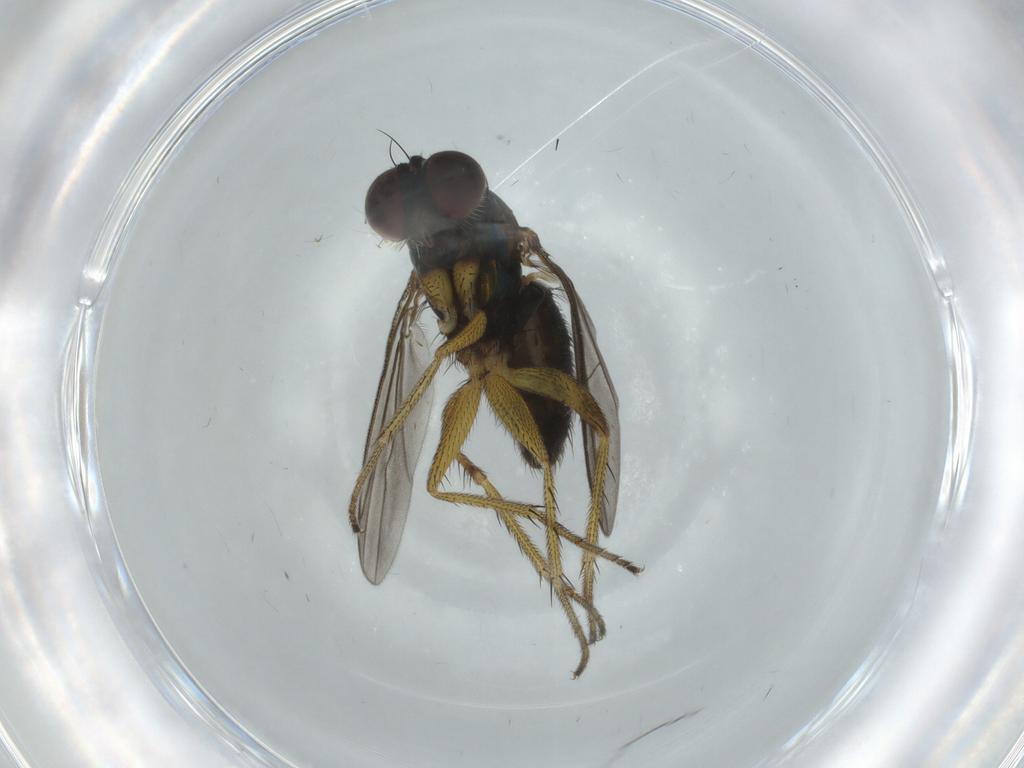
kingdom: Animalia
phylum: Arthropoda
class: Insecta
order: Diptera
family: Dolichopodidae
